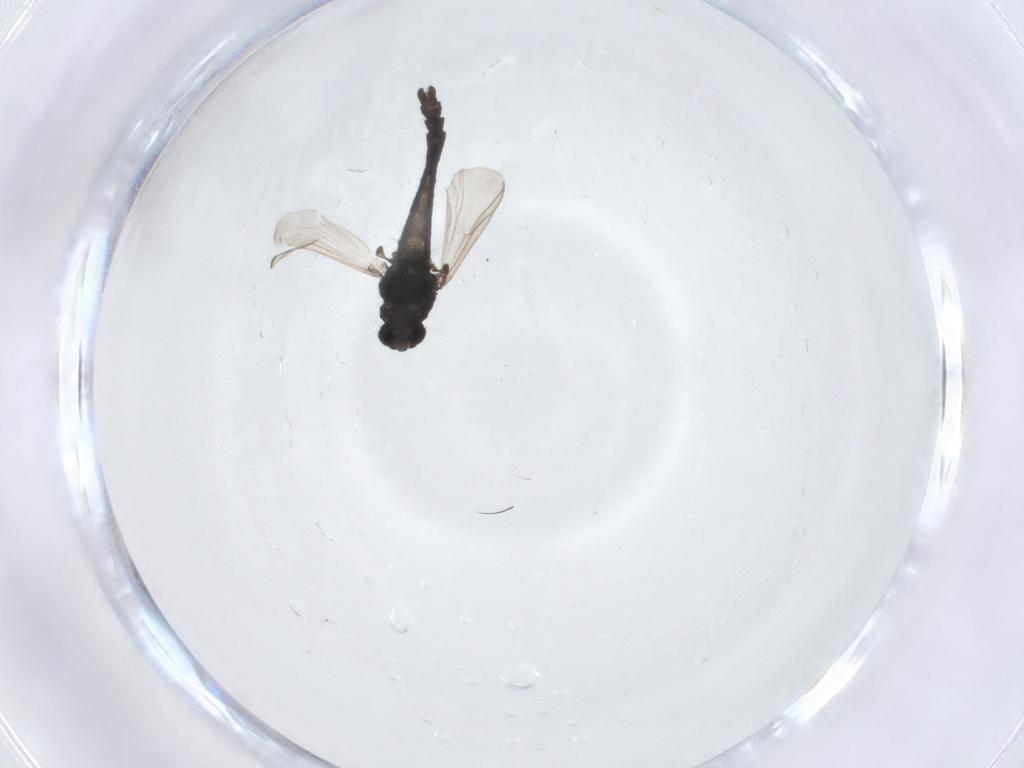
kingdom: Animalia
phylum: Arthropoda
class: Insecta
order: Diptera
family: Chironomidae
